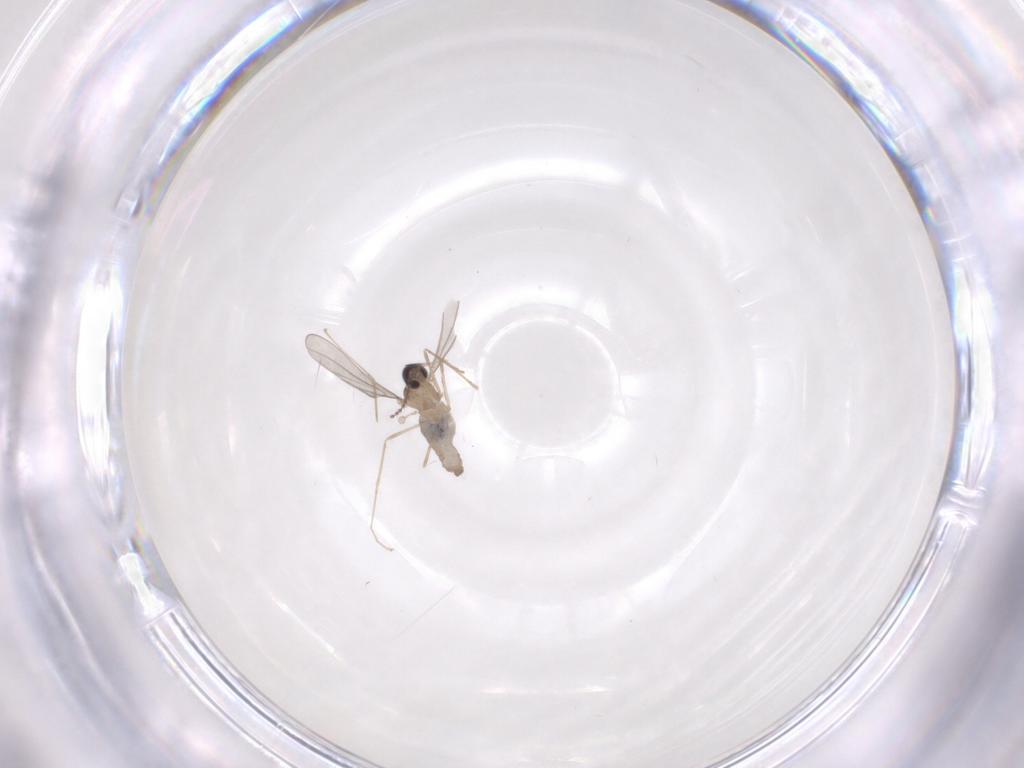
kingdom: Animalia
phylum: Arthropoda
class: Insecta
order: Diptera
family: Cecidomyiidae
